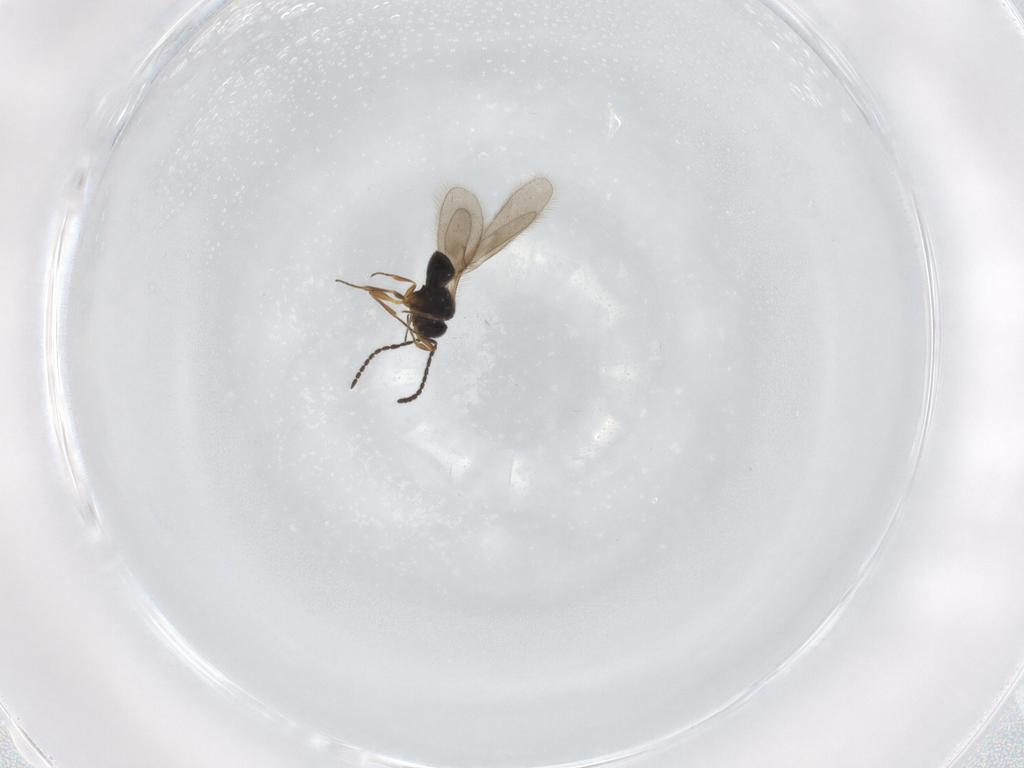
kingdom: Animalia
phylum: Arthropoda
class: Insecta
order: Hymenoptera
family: Scelionidae
